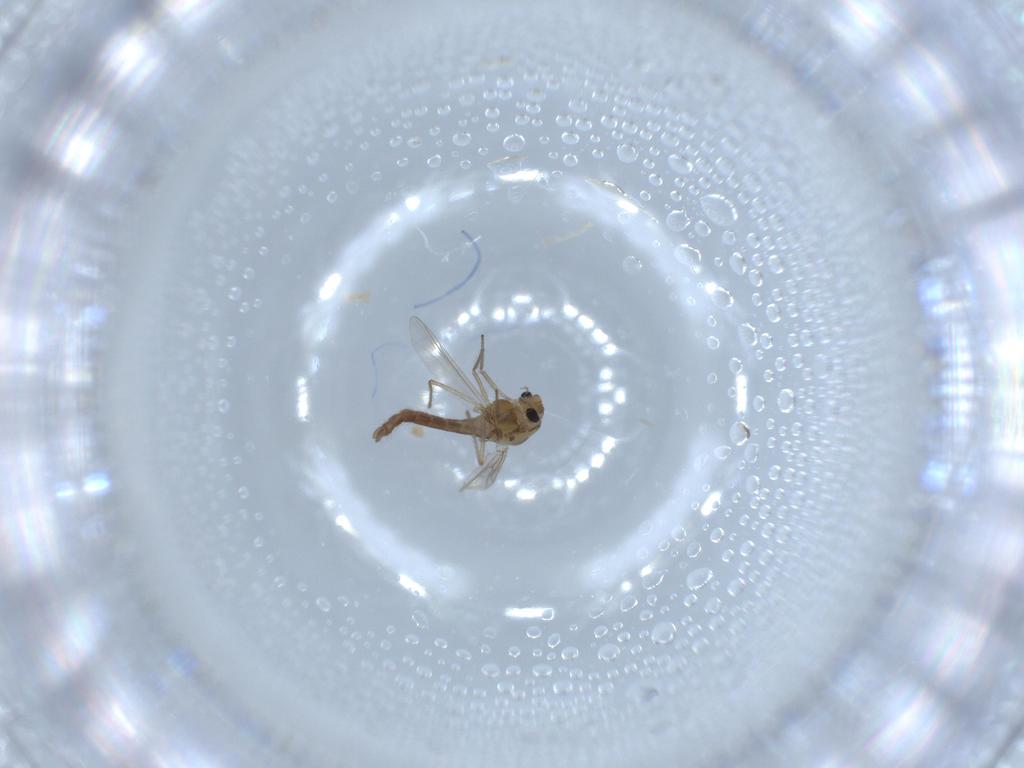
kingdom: Animalia
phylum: Arthropoda
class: Insecta
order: Diptera
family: Chironomidae
